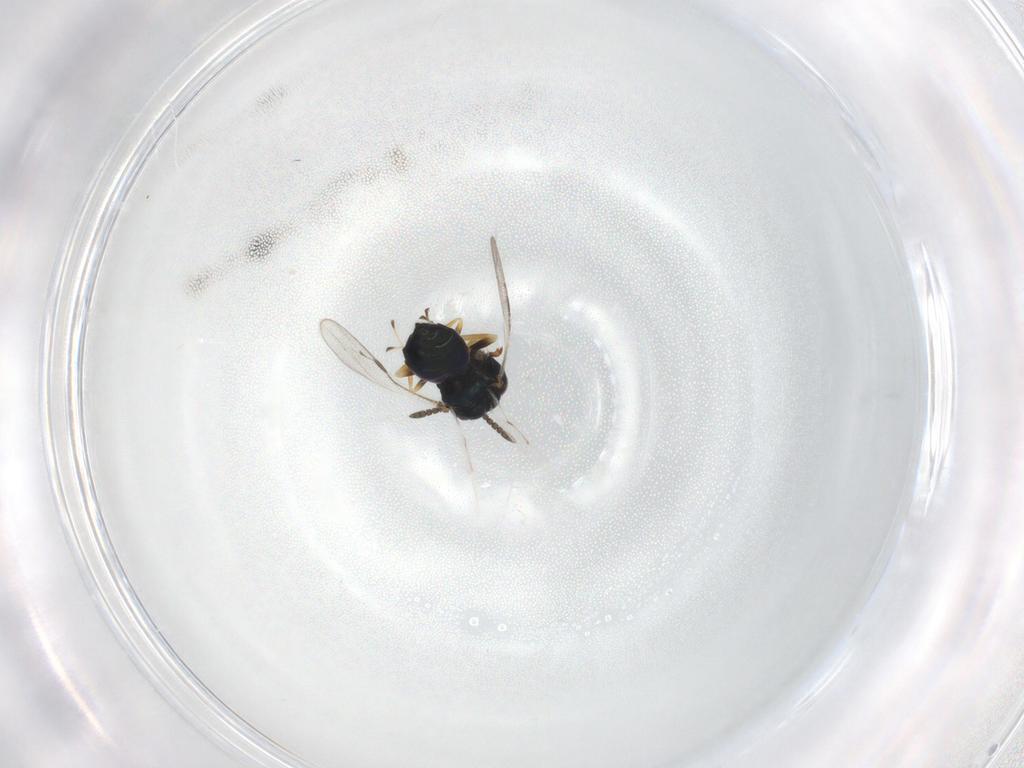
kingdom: Animalia
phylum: Arthropoda
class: Insecta
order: Hymenoptera
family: Pteromalidae
